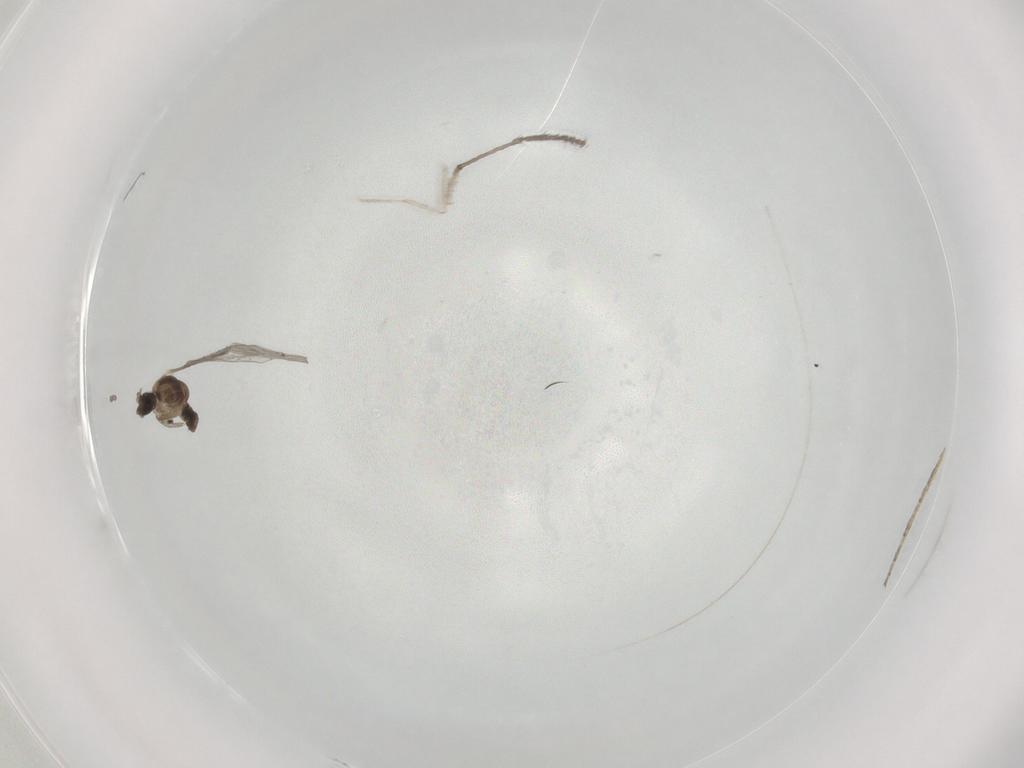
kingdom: Animalia
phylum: Arthropoda
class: Insecta
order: Diptera
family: Psychodidae
